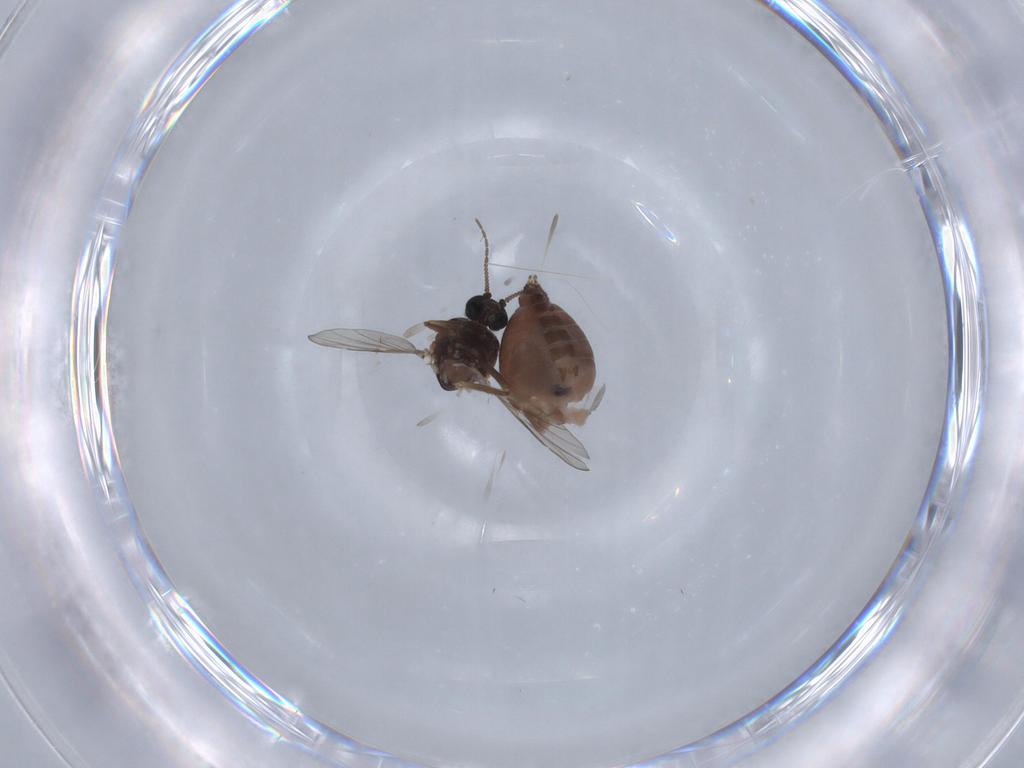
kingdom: Animalia
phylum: Arthropoda
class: Insecta
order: Diptera
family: Ceratopogonidae
